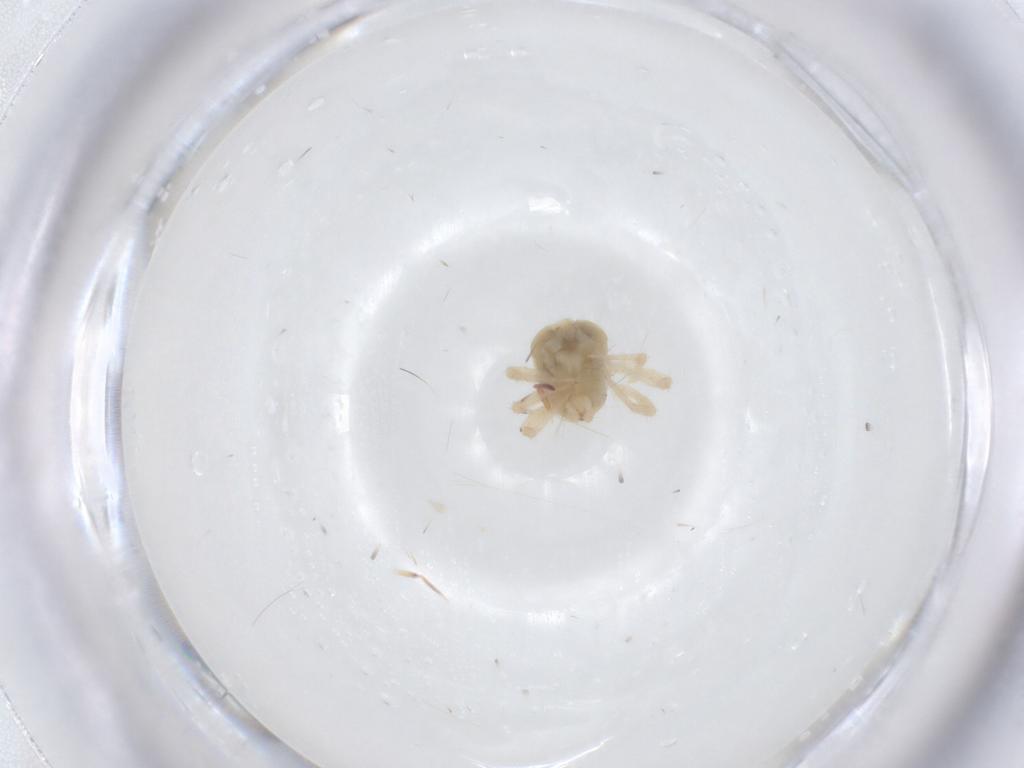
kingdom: Animalia
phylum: Arthropoda
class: Arachnida
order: Trombidiformes
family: Anystidae
